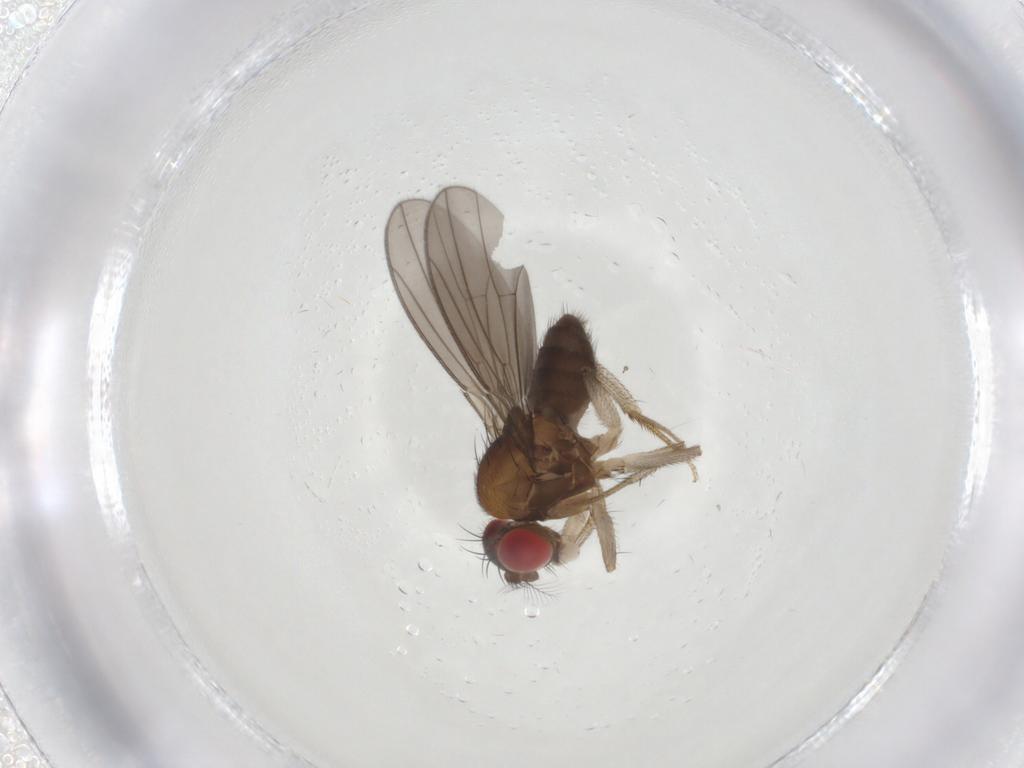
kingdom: Animalia
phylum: Arthropoda
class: Insecta
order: Diptera
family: Drosophilidae
